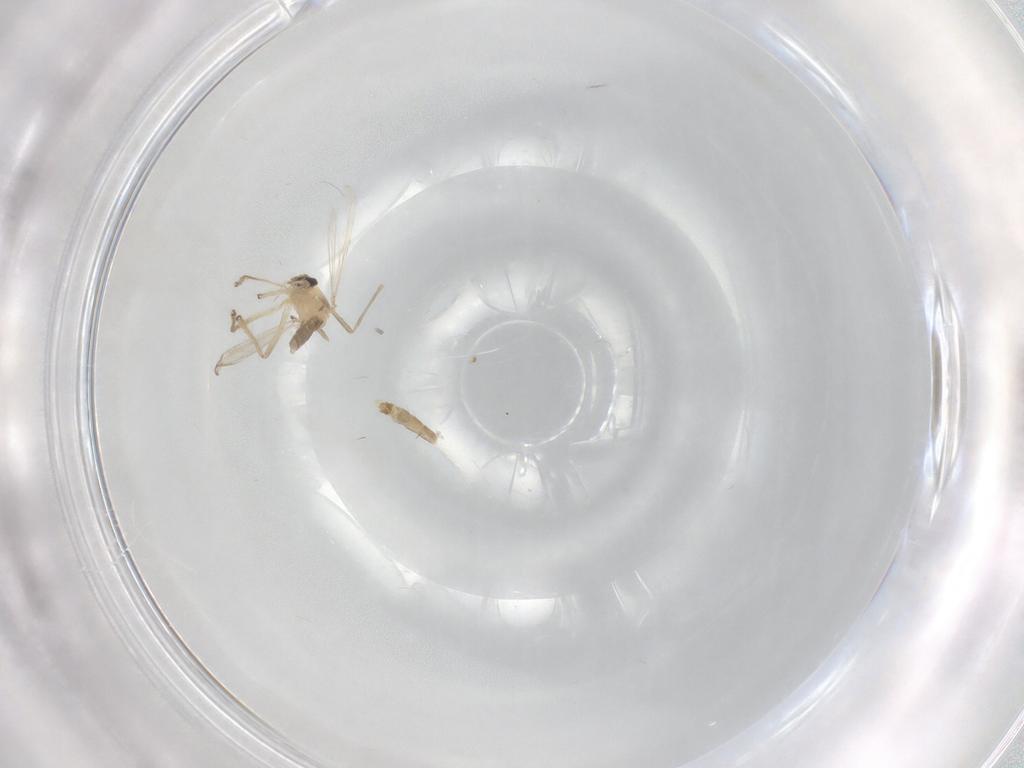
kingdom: Animalia
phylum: Arthropoda
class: Insecta
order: Diptera
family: Chironomidae
